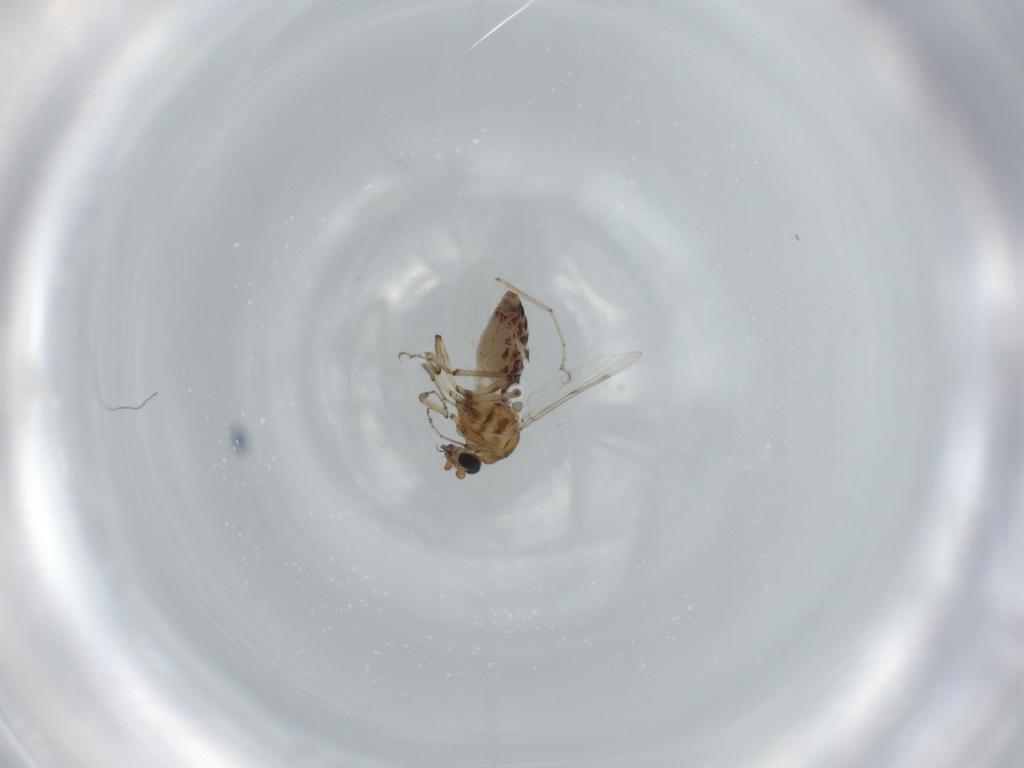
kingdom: Animalia
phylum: Arthropoda
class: Insecta
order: Diptera
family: Ceratopogonidae
